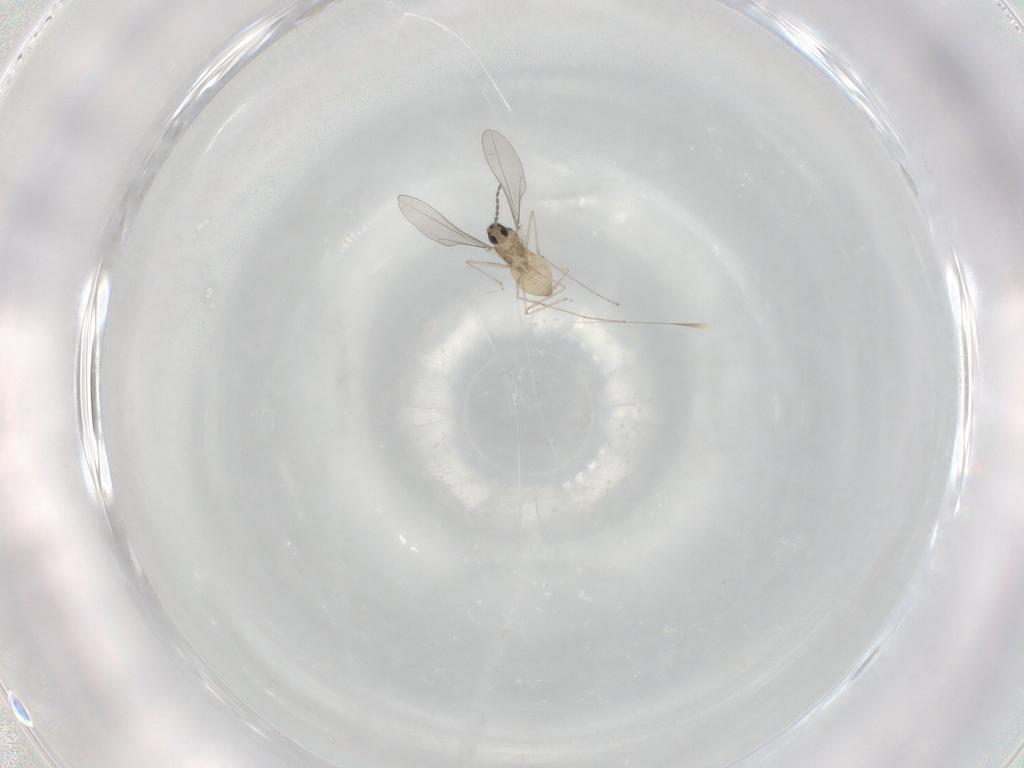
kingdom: Animalia
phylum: Arthropoda
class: Insecta
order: Diptera
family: Cecidomyiidae
